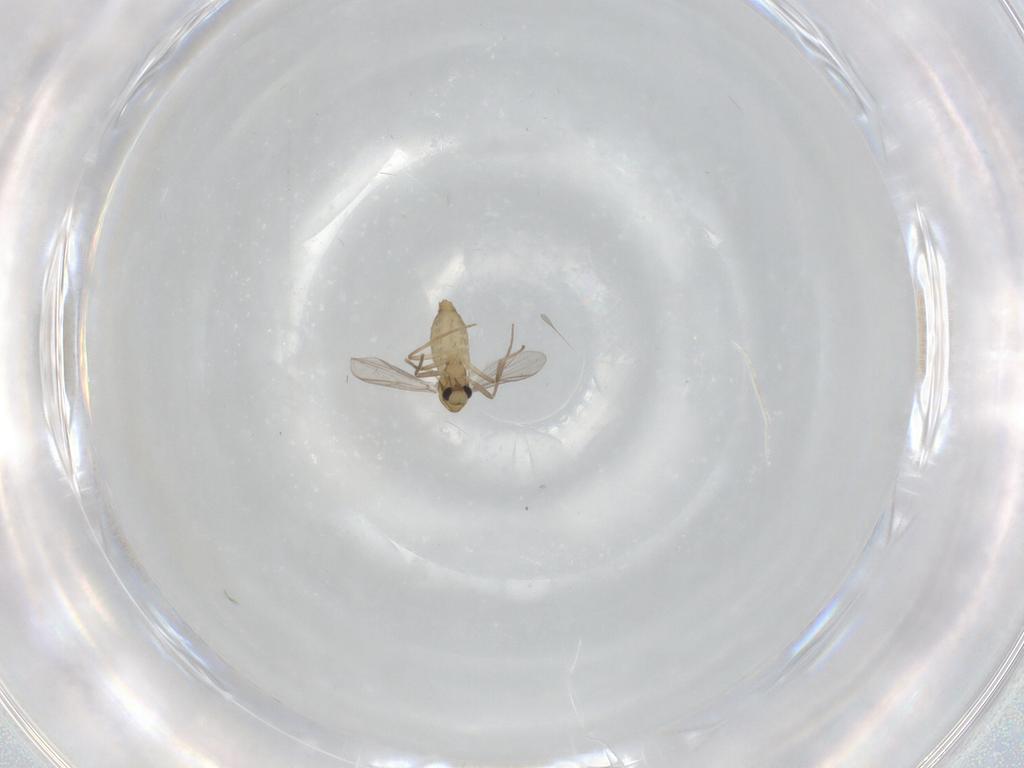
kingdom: Animalia
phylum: Arthropoda
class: Insecta
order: Diptera
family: Chironomidae
